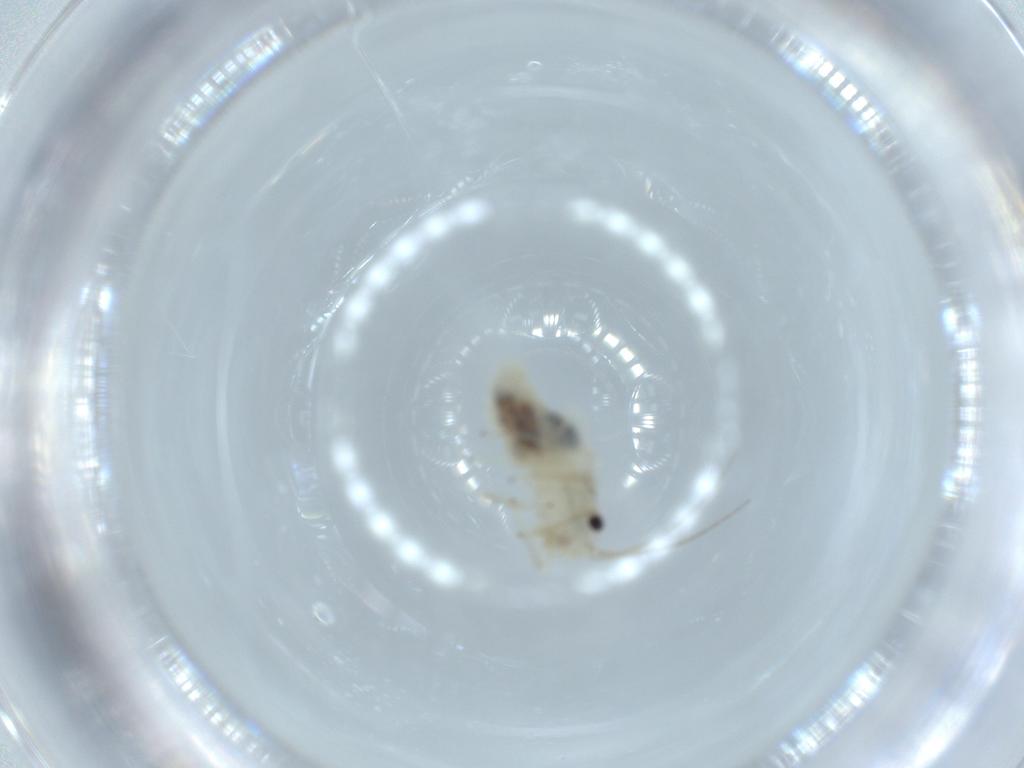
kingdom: Animalia
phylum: Arthropoda
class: Insecta
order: Psocodea
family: Caeciliusidae
